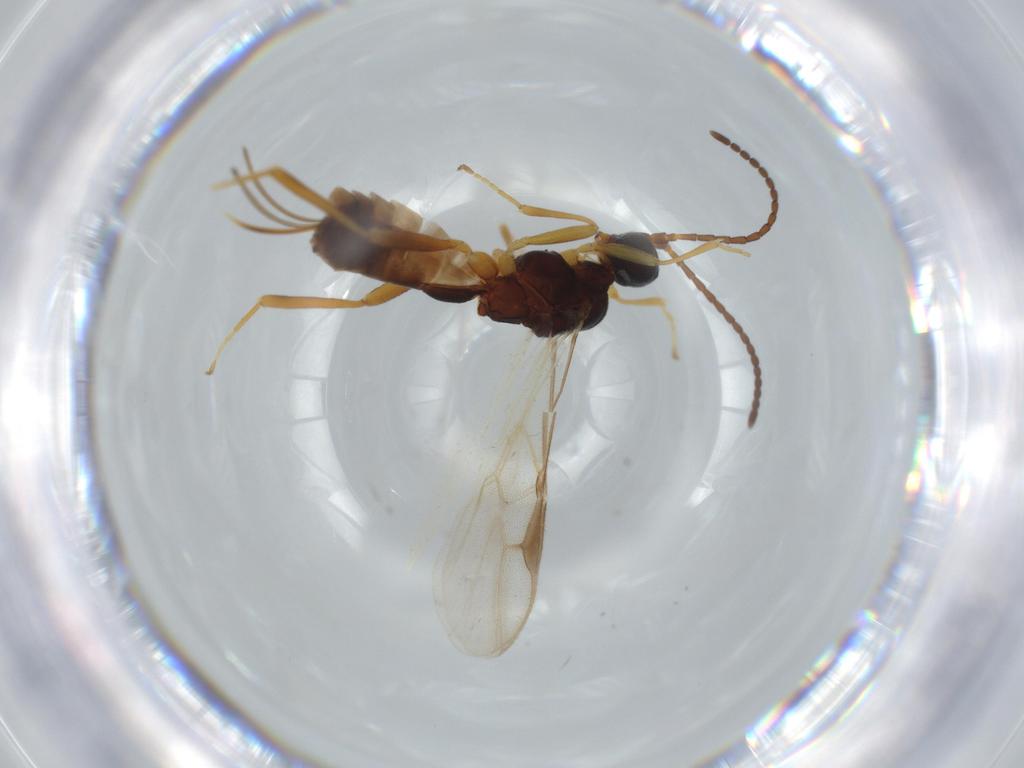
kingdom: Animalia
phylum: Arthropoda
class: Insecta
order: Hymenoptera
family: Braconidae
